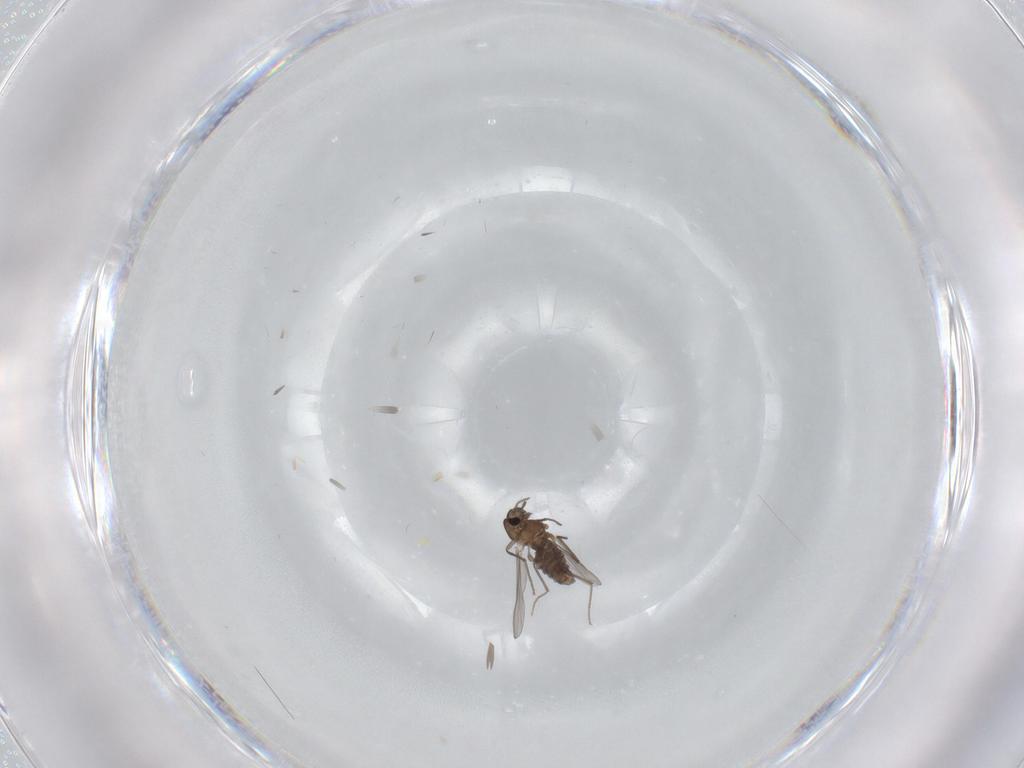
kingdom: Animalia
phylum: Arthropoda
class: Insecta
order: Diptera
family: Chironomidae
